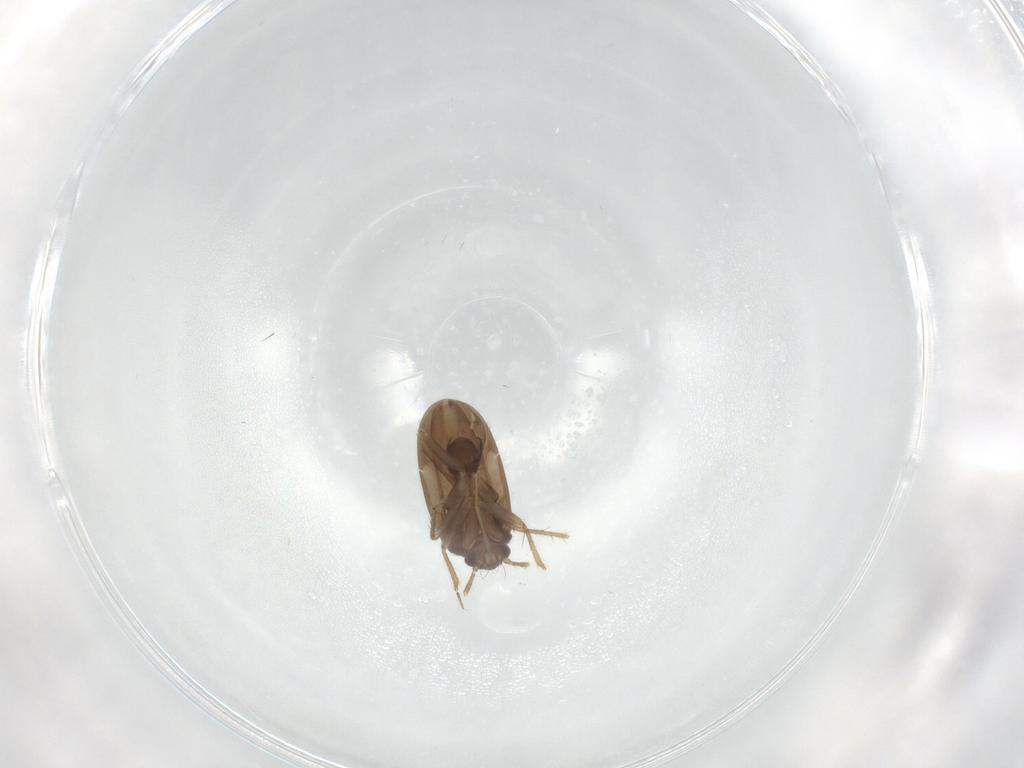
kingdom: Animalia
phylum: Arthropoda
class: Insecta
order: Hemiptera
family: Ceratocombidae
